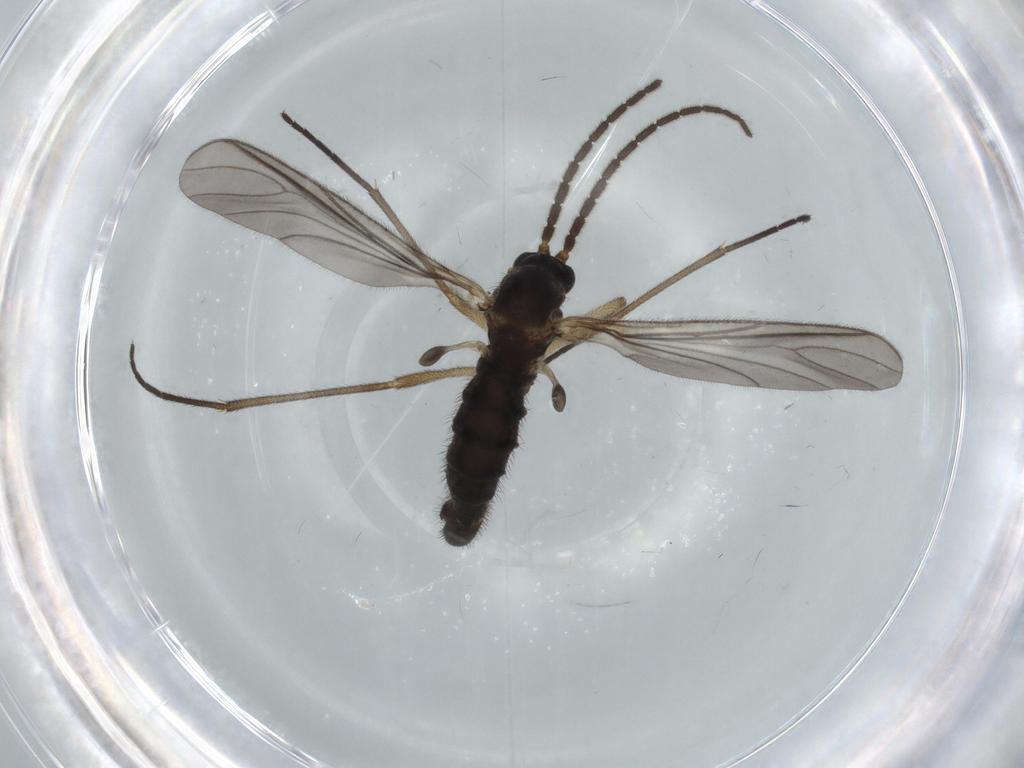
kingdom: Animalia
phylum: Arthropoda
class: Insecta
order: Diptera
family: Sciaridae
